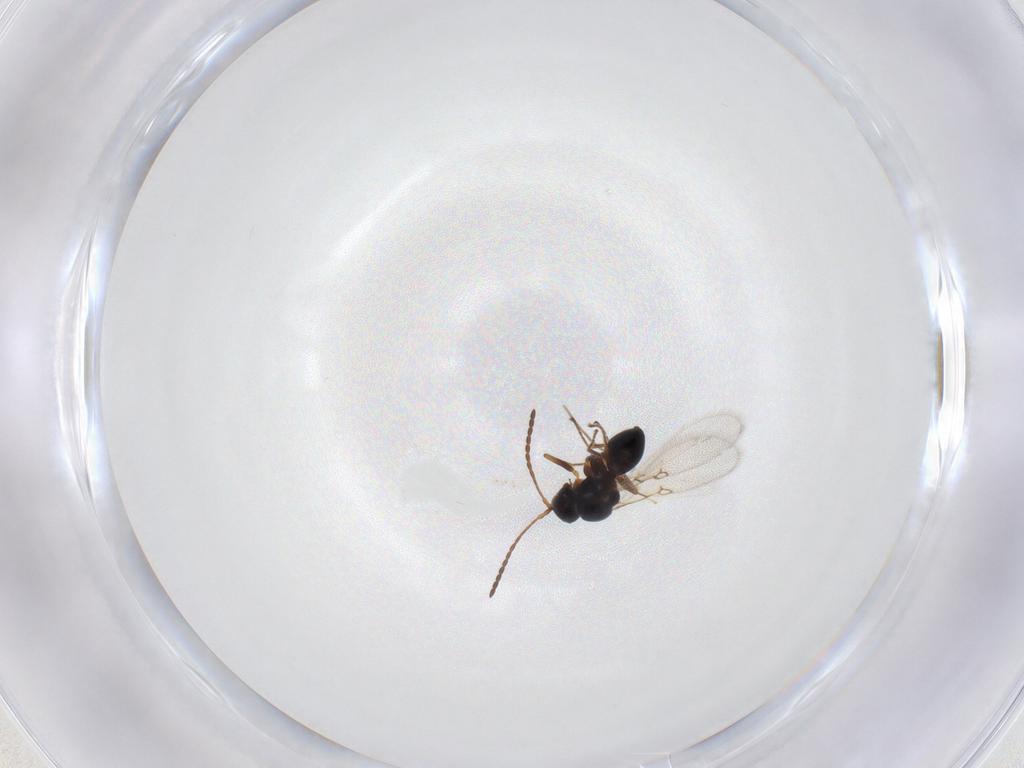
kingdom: Animalia
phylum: Arthropoda
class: Insecta
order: Hymenoptera
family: Figitidae
